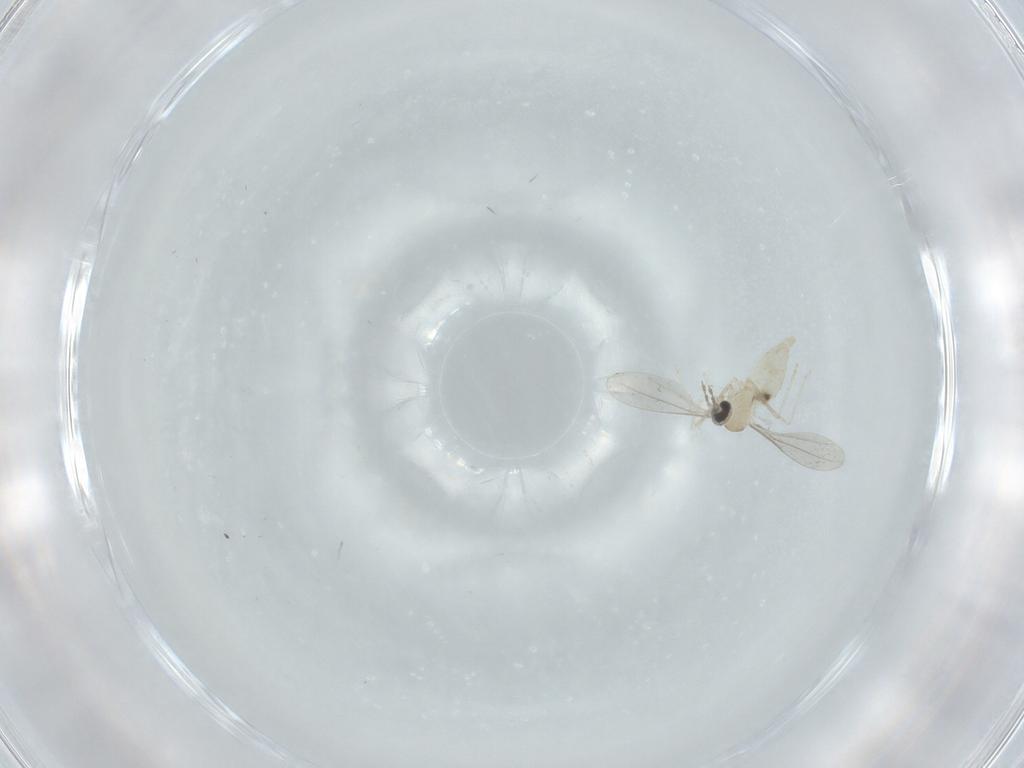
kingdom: Animalia
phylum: Arthropoda
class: Insecta
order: Diptera
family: Cecidomyiidae
